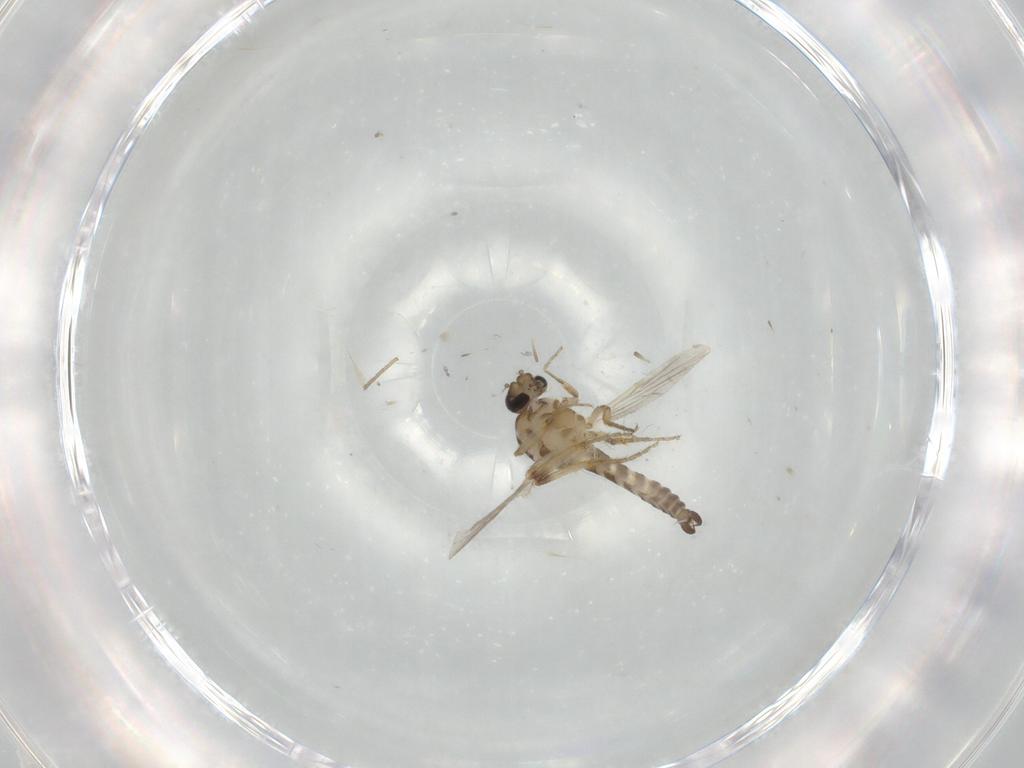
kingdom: Animalia
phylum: Arthropoda
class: Insecta
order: Diptera
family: Ceratopogonidae
